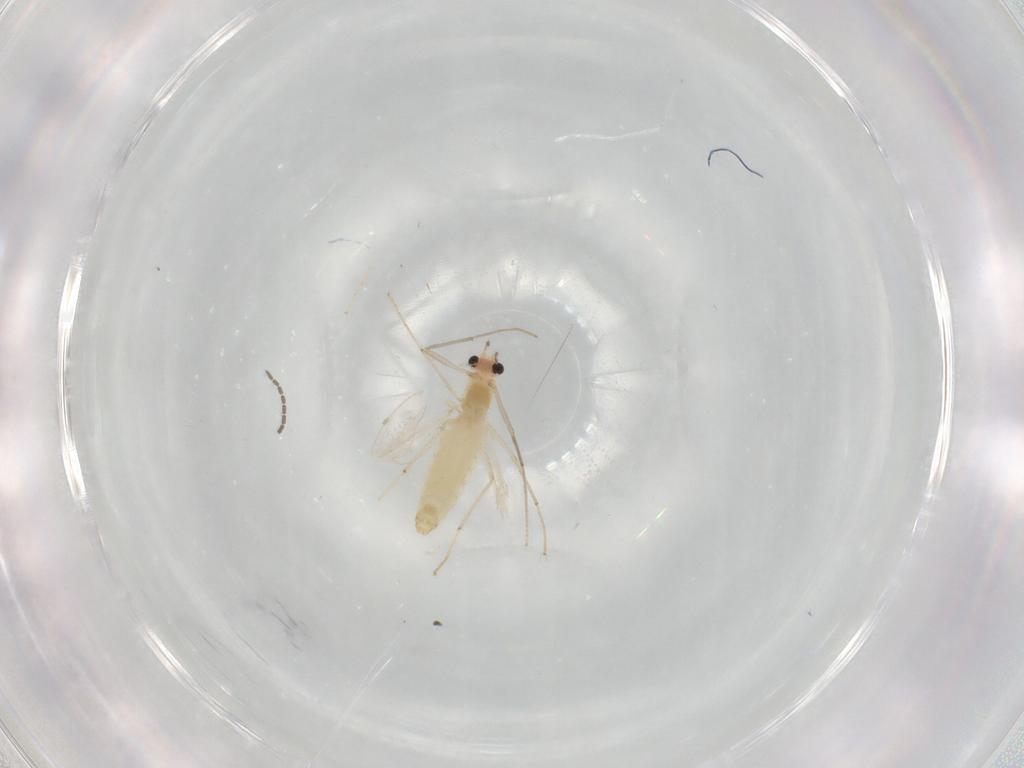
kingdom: Animalia
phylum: Arthropoda
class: Insecta
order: Diptera
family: Chironomidae
